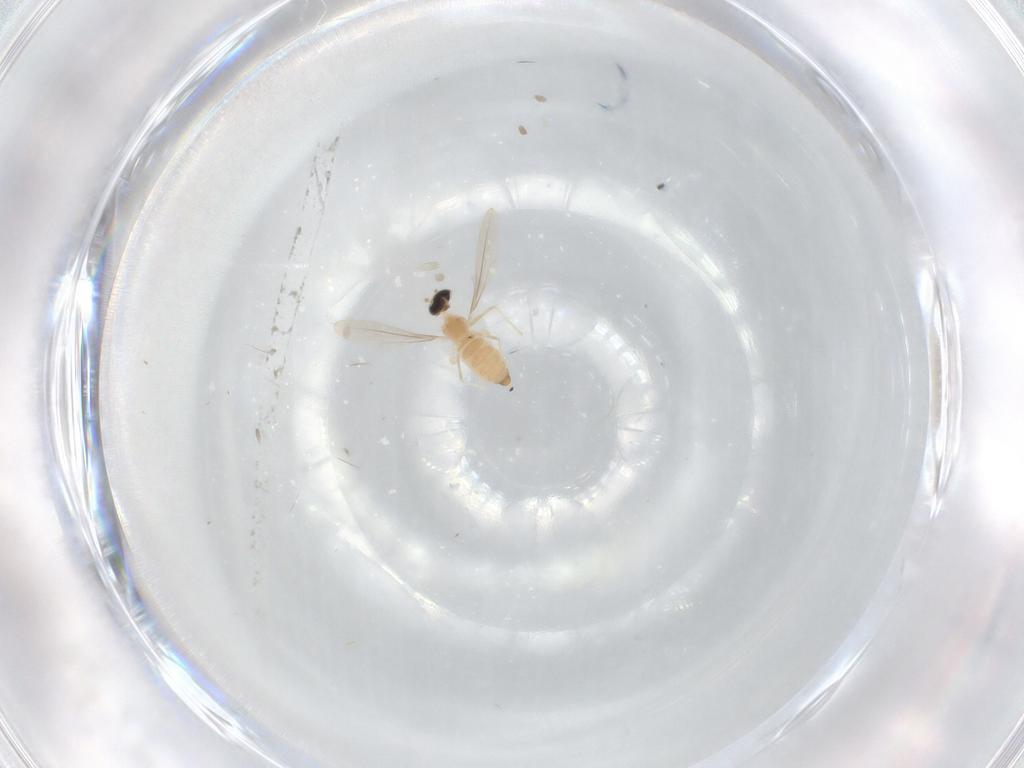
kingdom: Animalia
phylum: Arthropoda
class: Insecta
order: Diptera
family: Cecidomyiidae
